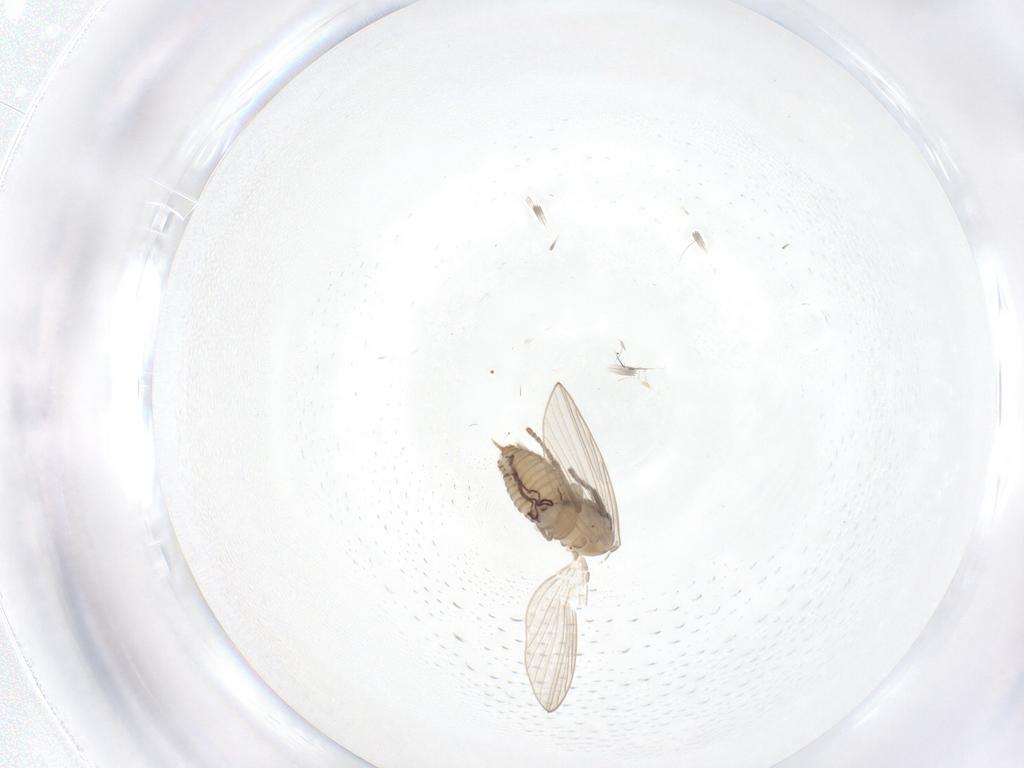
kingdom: Animalia
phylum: Arthropoda
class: Insecta
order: Diptera
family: Psychodidae
